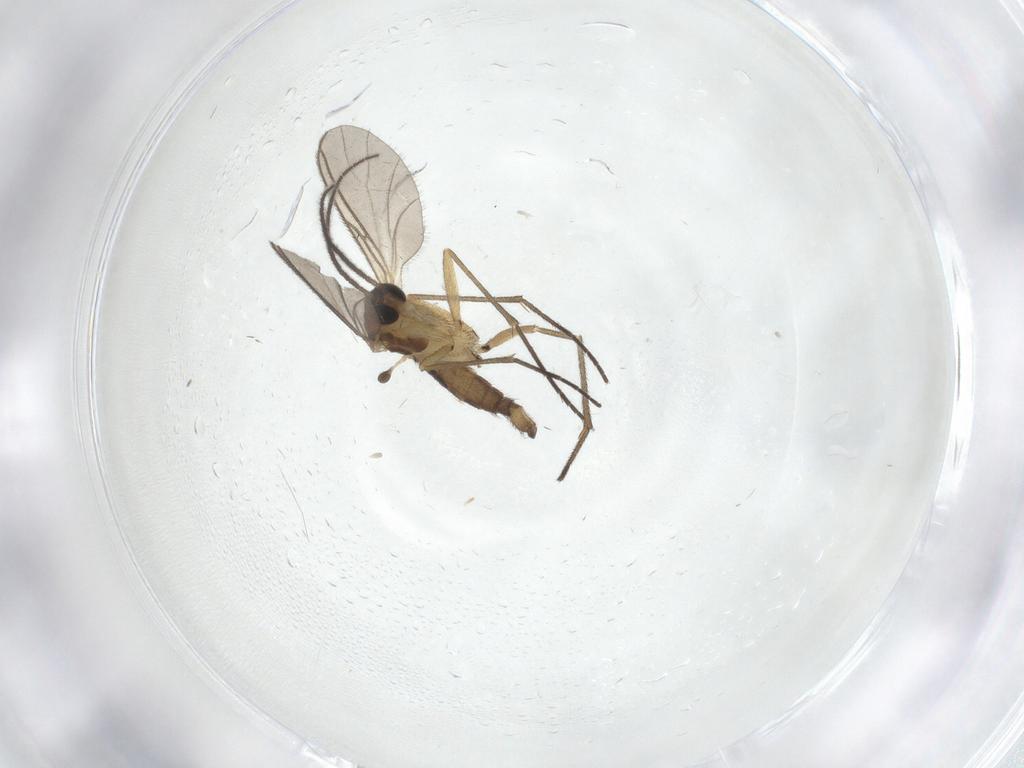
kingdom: Animalia
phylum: Arthropoda
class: Insecta
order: Diptera
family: Sciaridae
